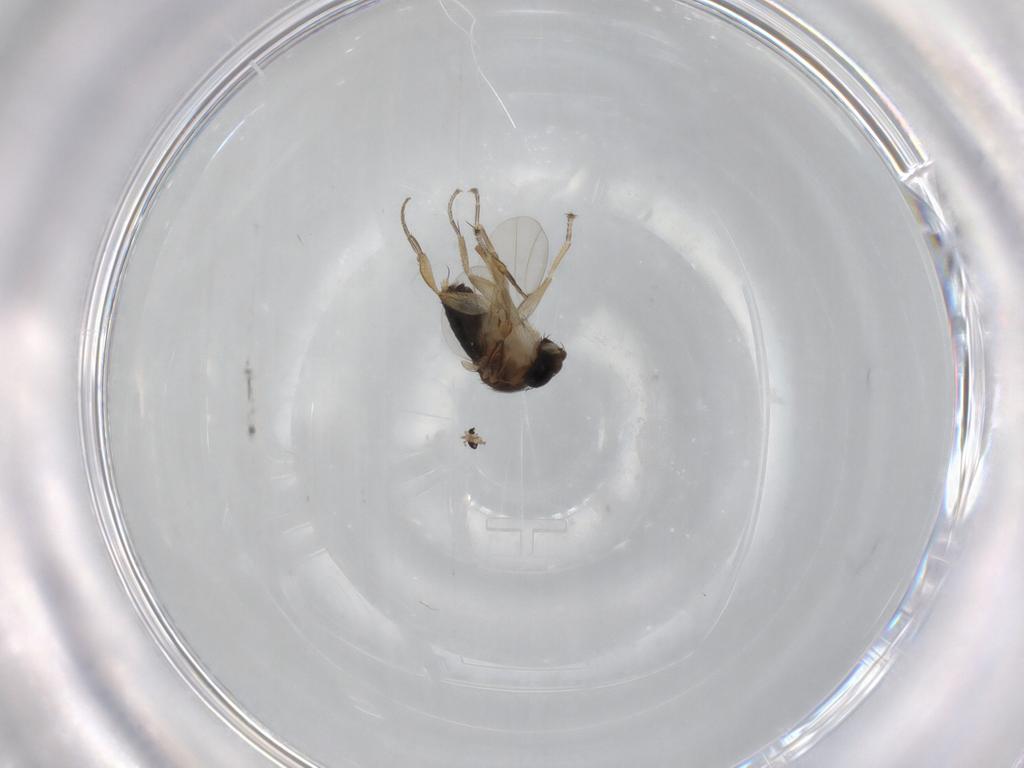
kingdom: Animalia
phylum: Arthropoda
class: Insecta
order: Diptera
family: Phoridae
